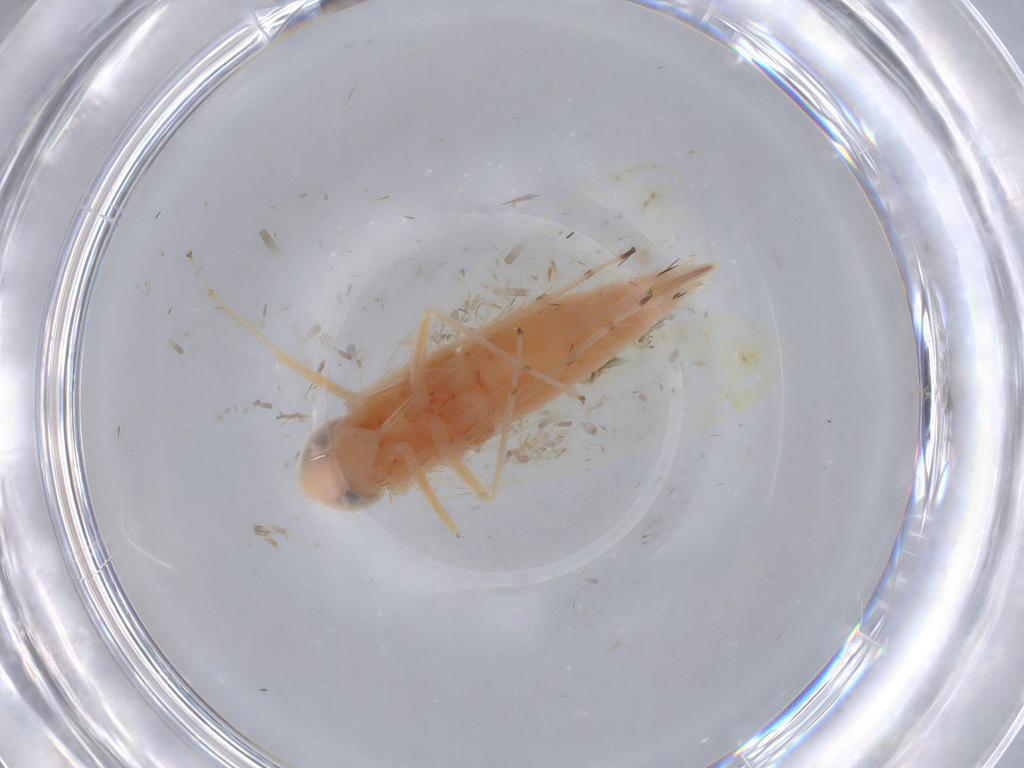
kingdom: Animalia
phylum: Arthropoda
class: Insecta
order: Hemiptera
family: Cicadellidae
